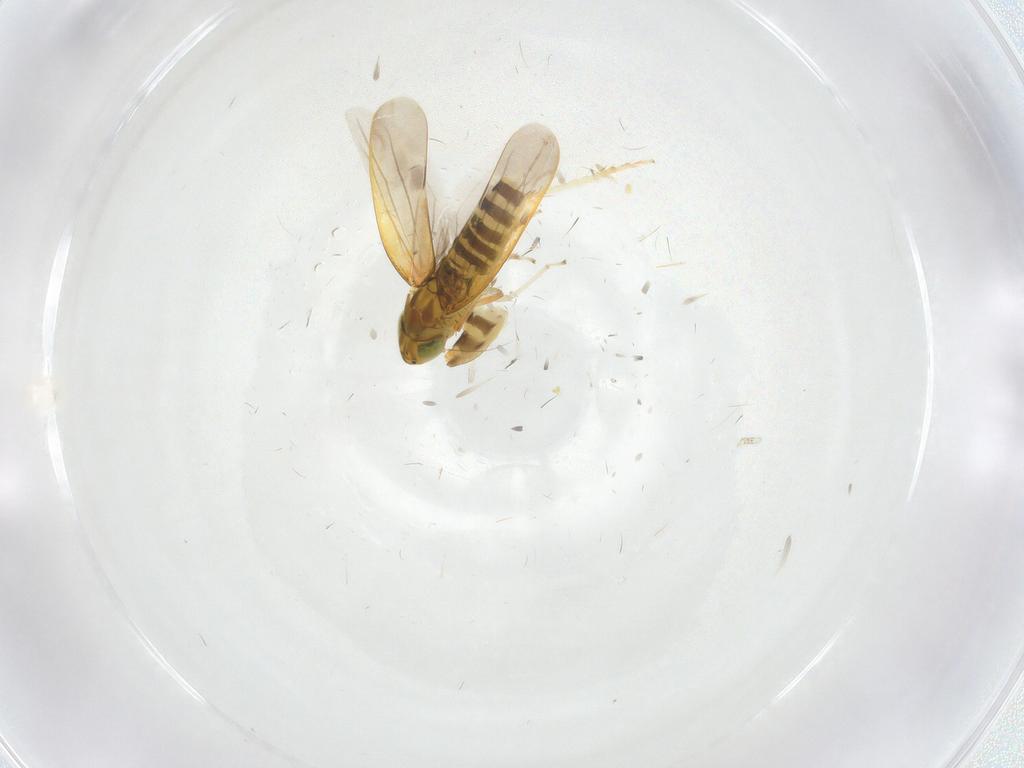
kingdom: Animalia
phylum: Arthropoda
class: Insecta
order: Hemiptera
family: Cicadellidae
